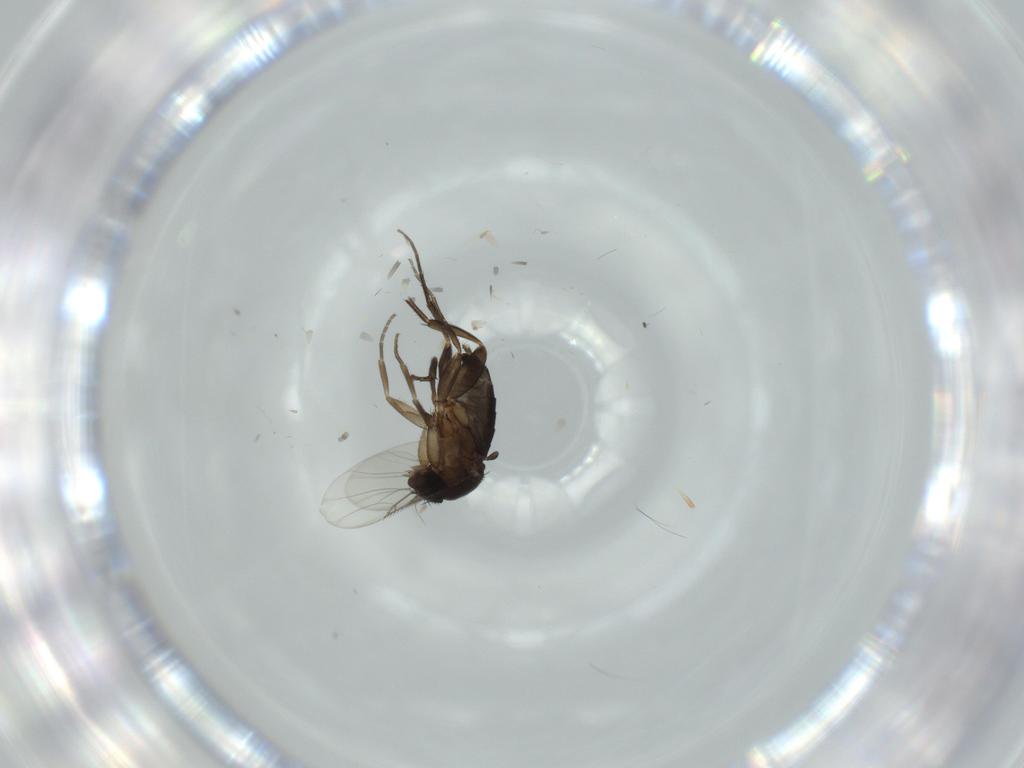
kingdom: Animalia
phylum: Arthropoda
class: Insecta
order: Diptera
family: Phoridae
